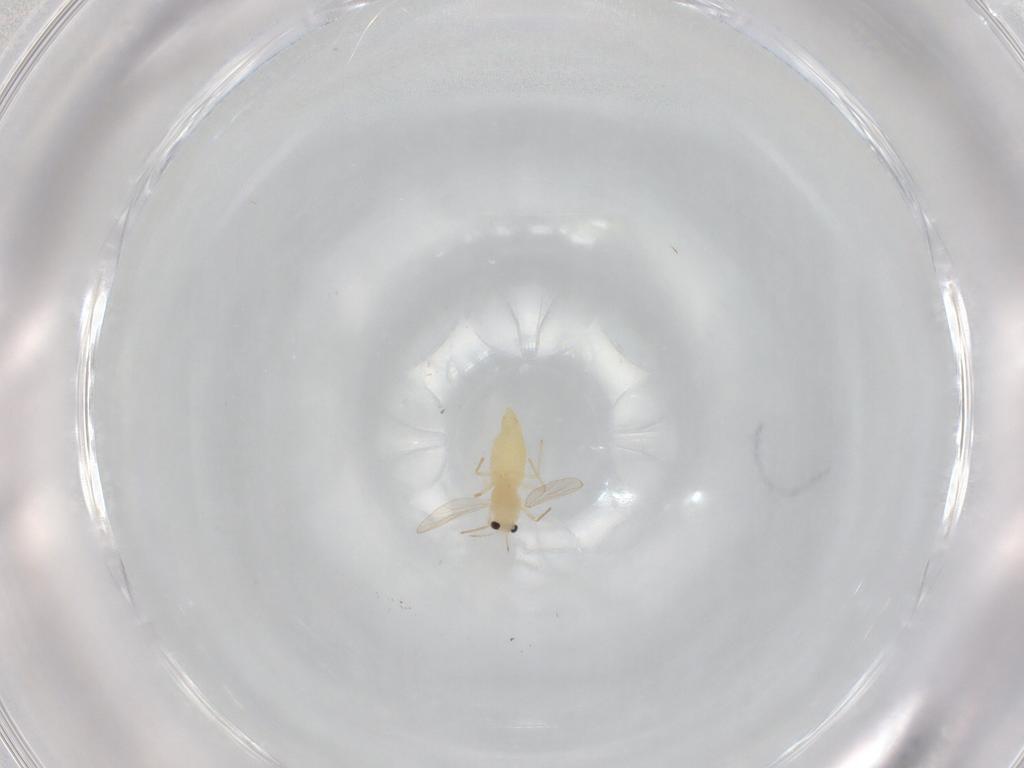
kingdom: Animalia
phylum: Arthropoda
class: Insecta
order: Diptera
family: Chironomidae
